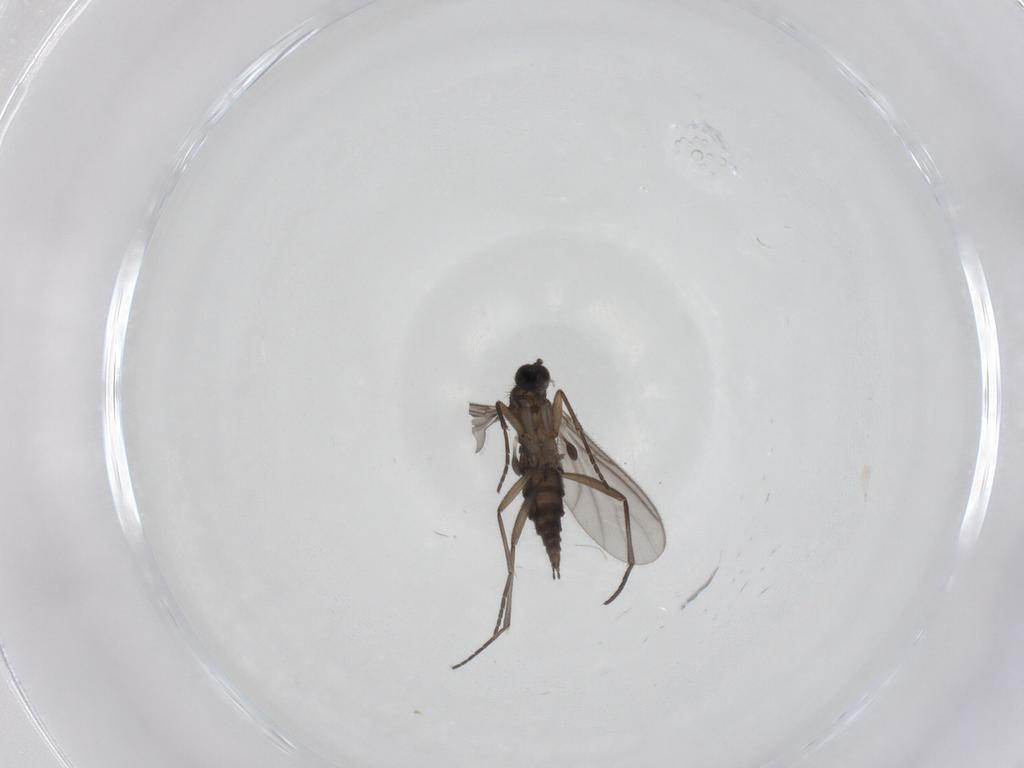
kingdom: Animalia
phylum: Arthropoda
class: Insecta
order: Diptera
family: Sciaridae
